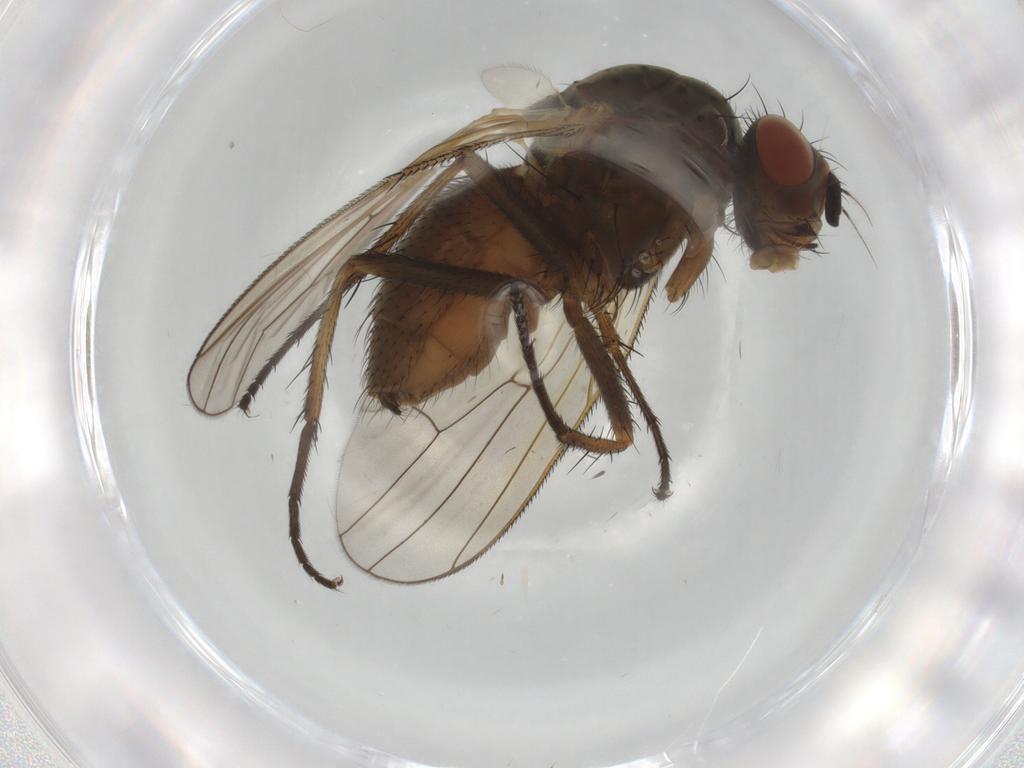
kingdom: Animalia
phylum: Arthropoda
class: Insecta
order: Diptera
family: Anthomyiidae
